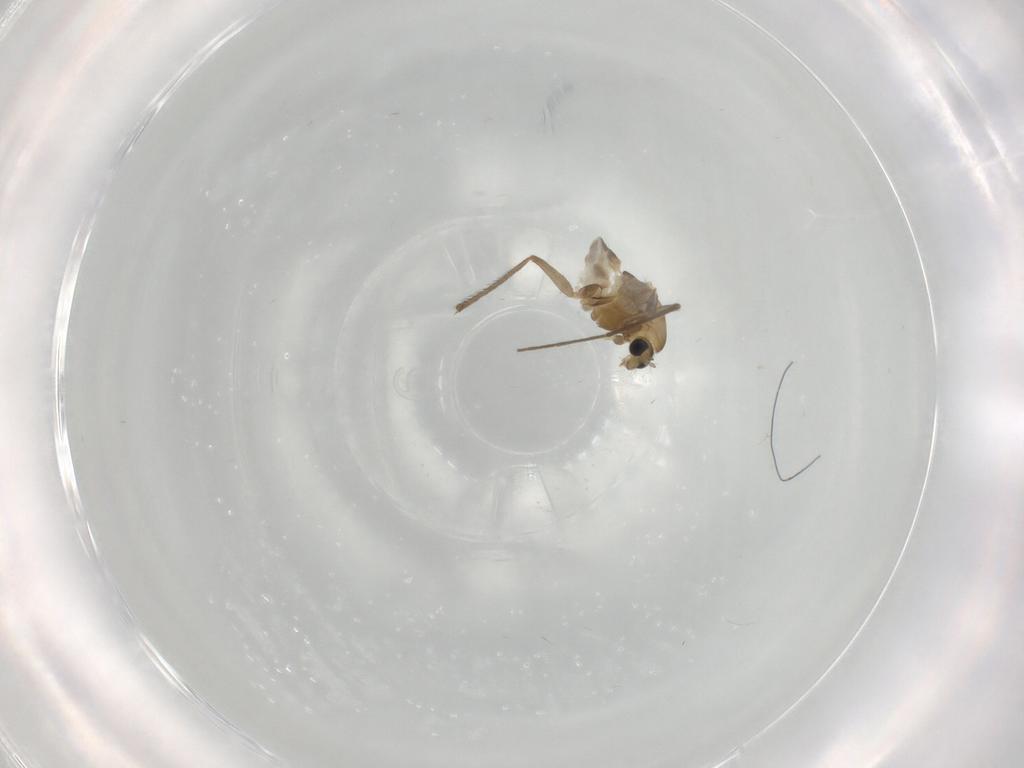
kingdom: Animalia
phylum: Arthropoda
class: Insecta
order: Diptera
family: Chironomidae
